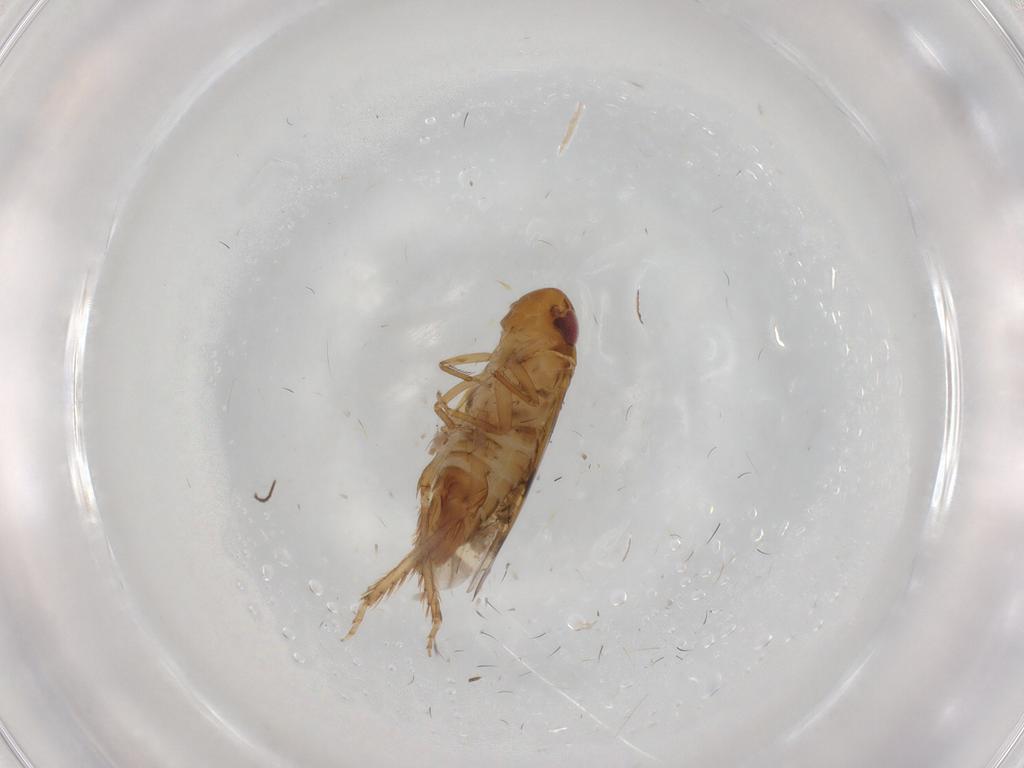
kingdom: Animalia
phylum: Arthropoda
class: Insecta
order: Hemiptera
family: Cicadellidae
